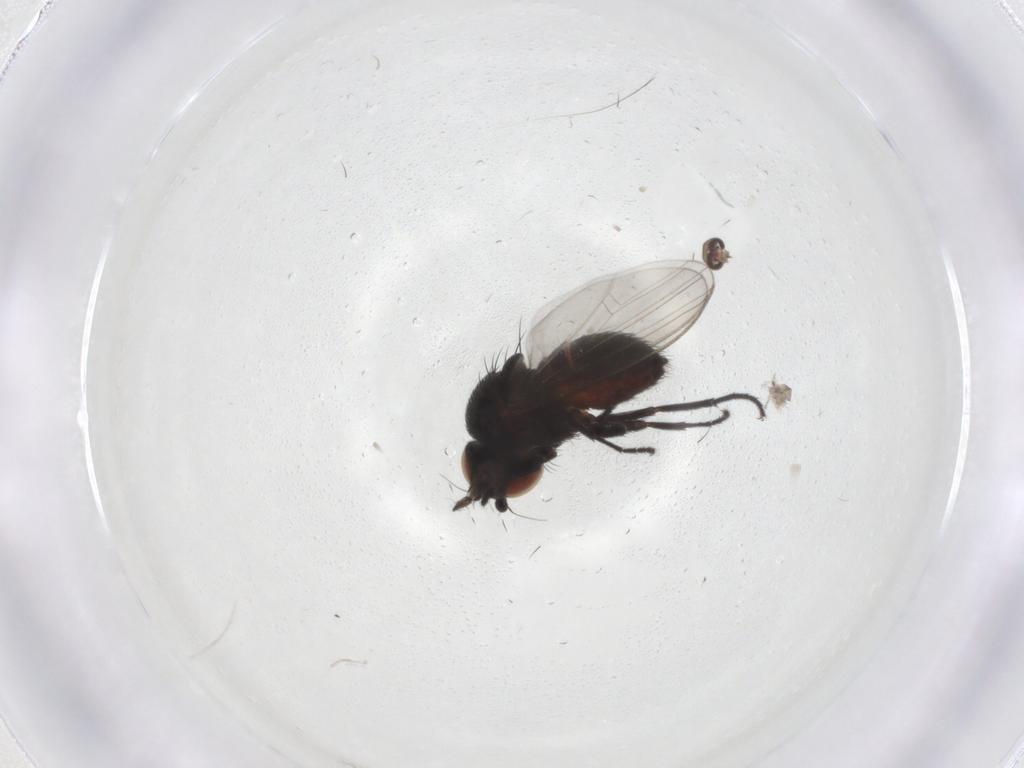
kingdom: Animalia
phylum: Arthropoda
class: Insecta
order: Diptera
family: Milichiidae
